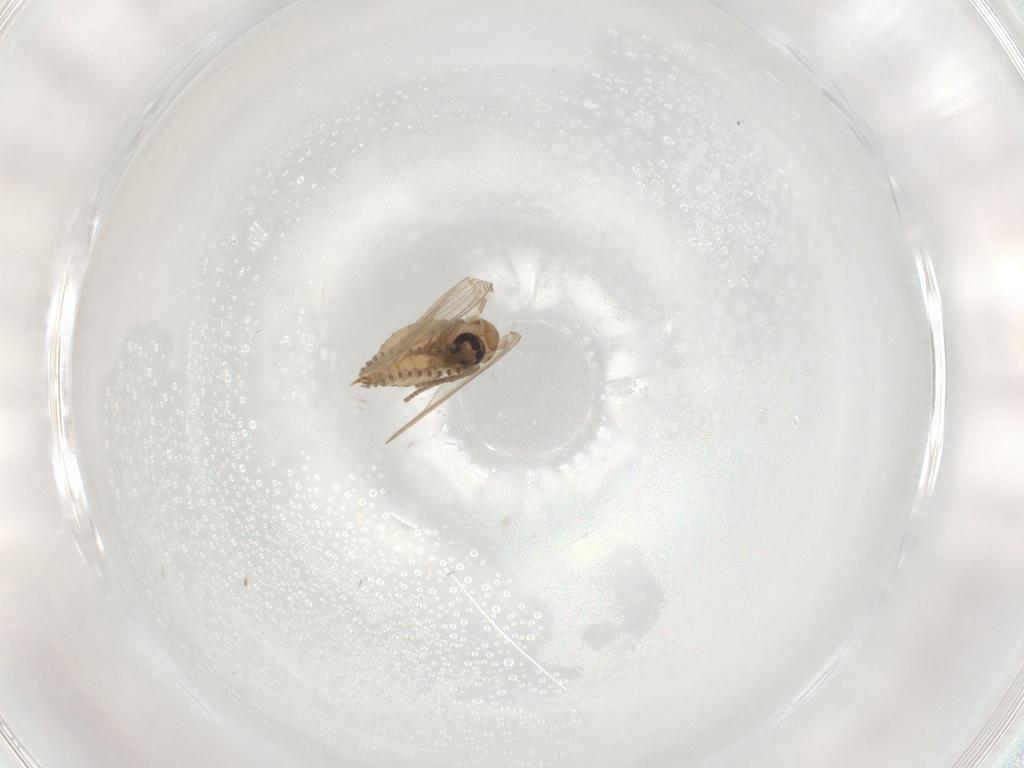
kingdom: Animalia
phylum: Arthropoda
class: Insecta
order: Diptera
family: Psychodidae
